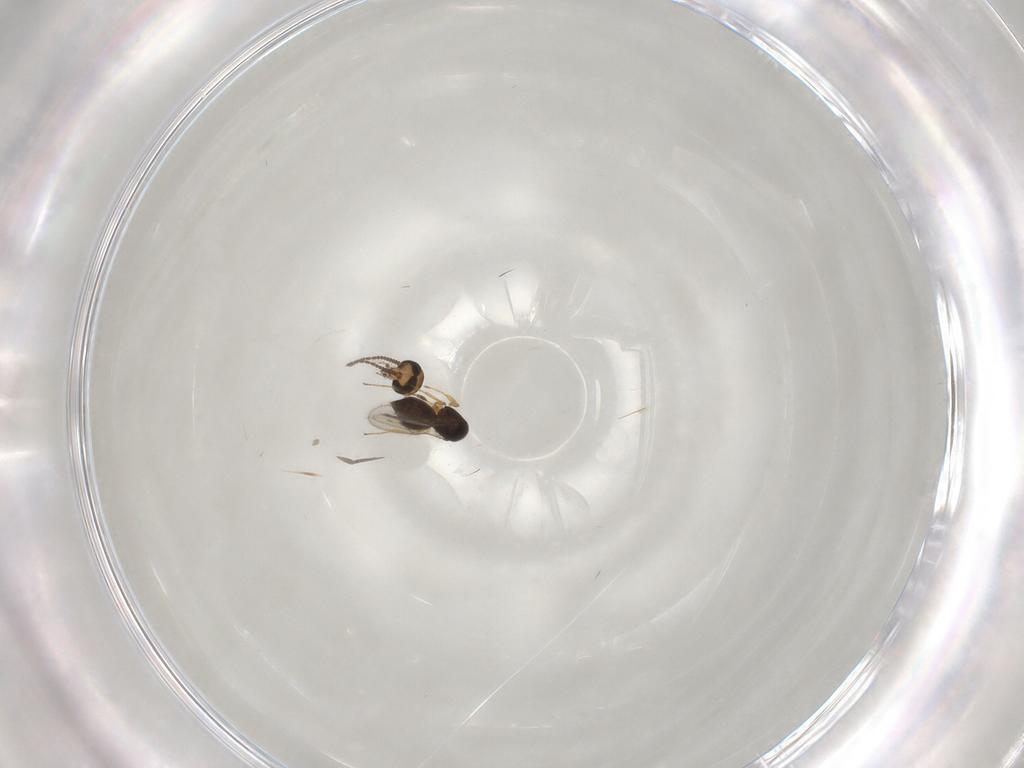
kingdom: Animalia
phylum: Arthropoda
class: Insecta
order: Hymenoptera
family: Scelionidae
